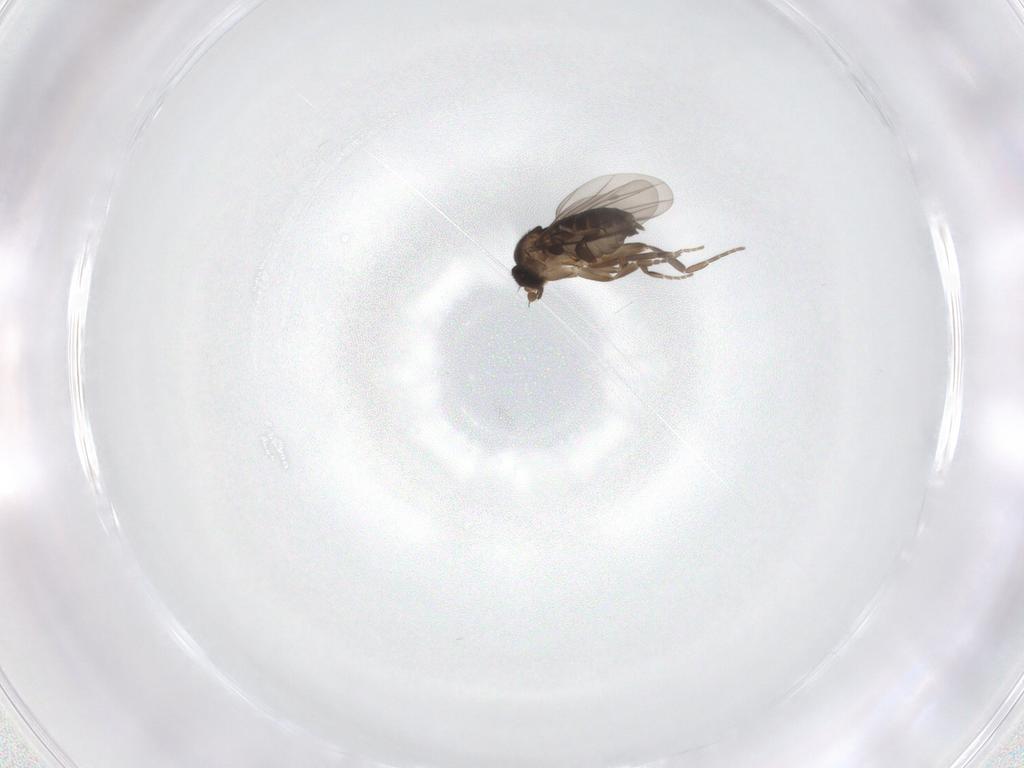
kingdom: Animalia
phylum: Arthropoda
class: Insecta
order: Diptera
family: Phoridae
